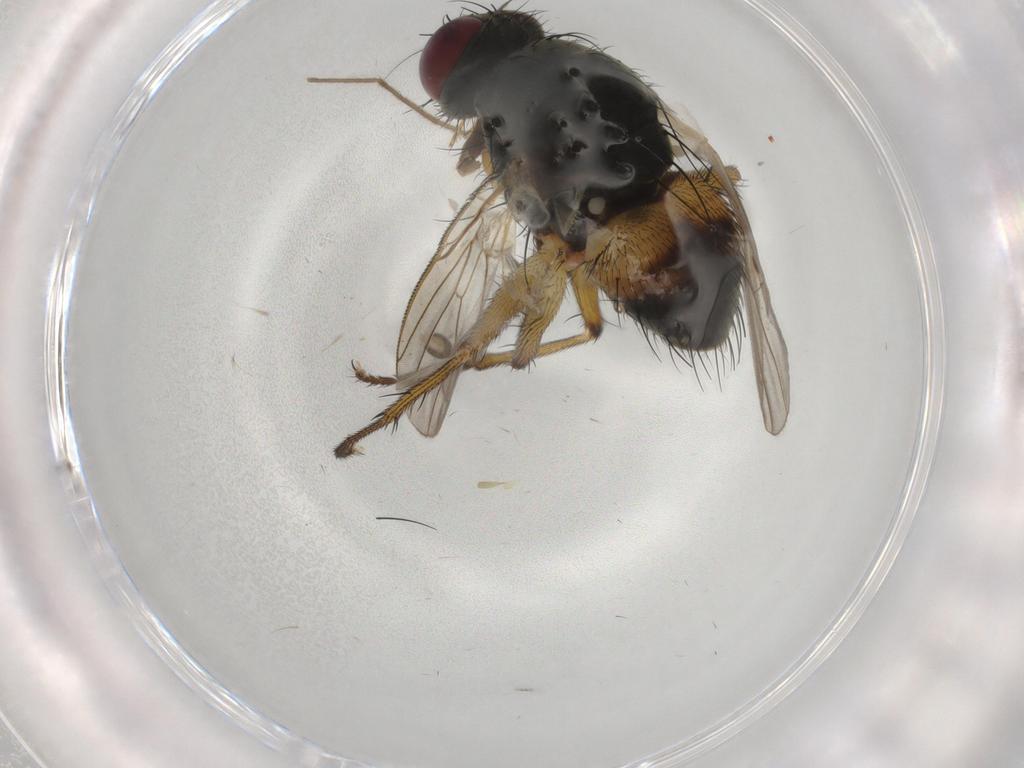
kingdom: Animalia
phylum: Arthropoda
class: Insecta
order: Diptera
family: Muscidae
